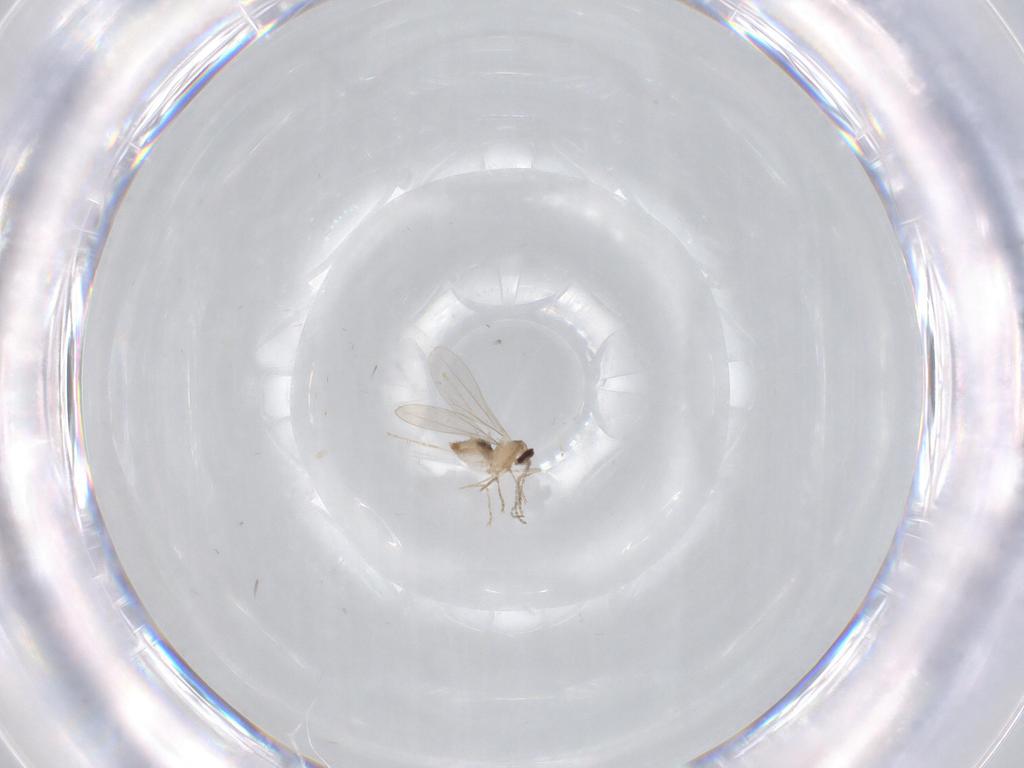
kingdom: Animalia
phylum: Arthropoda
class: Insecta
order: Diptera
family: Cecidomyiidae
